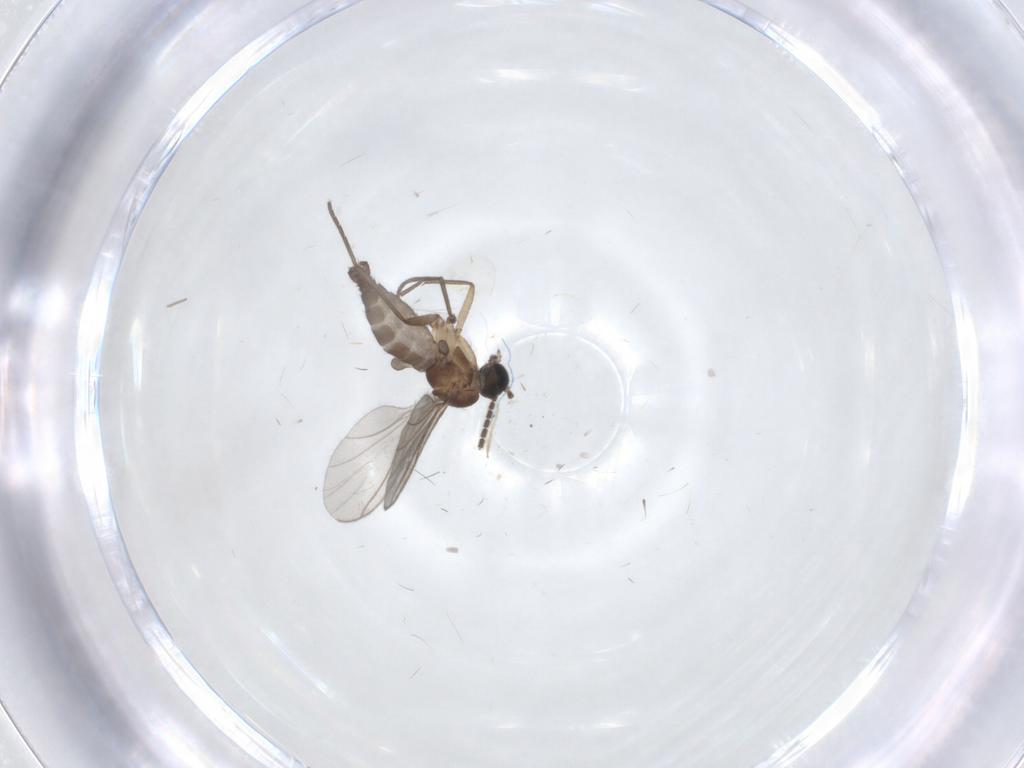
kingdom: Animalia
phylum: Arthropoda
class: Insecta
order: Diptera
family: Sciaridae
